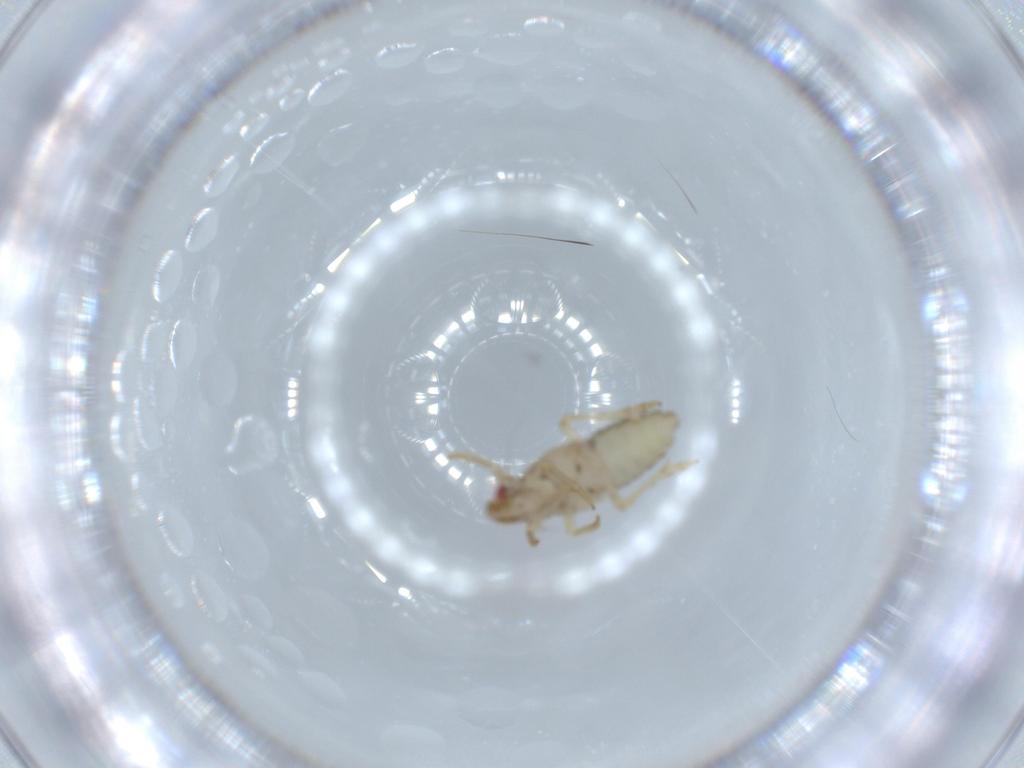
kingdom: Animalia
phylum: Arthropoda
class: Insecta
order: Hemiptera
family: Delphacidae
